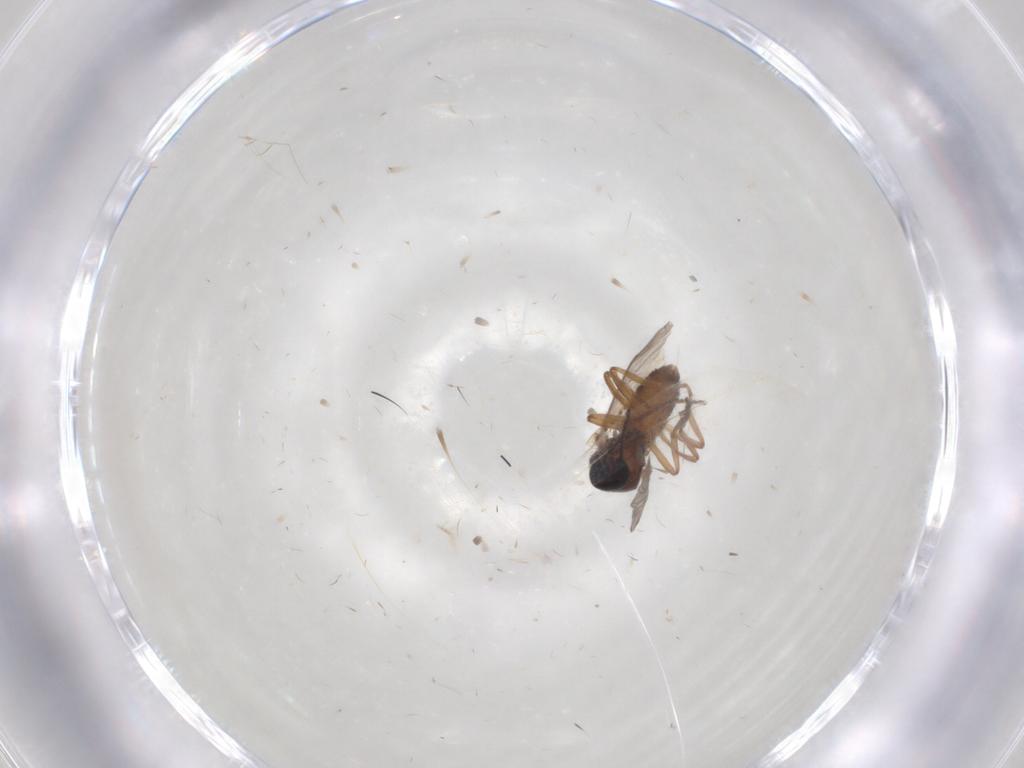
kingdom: Animalia
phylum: Arthropoda
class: Insecta
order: Diptera
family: Ceratopogonidae
